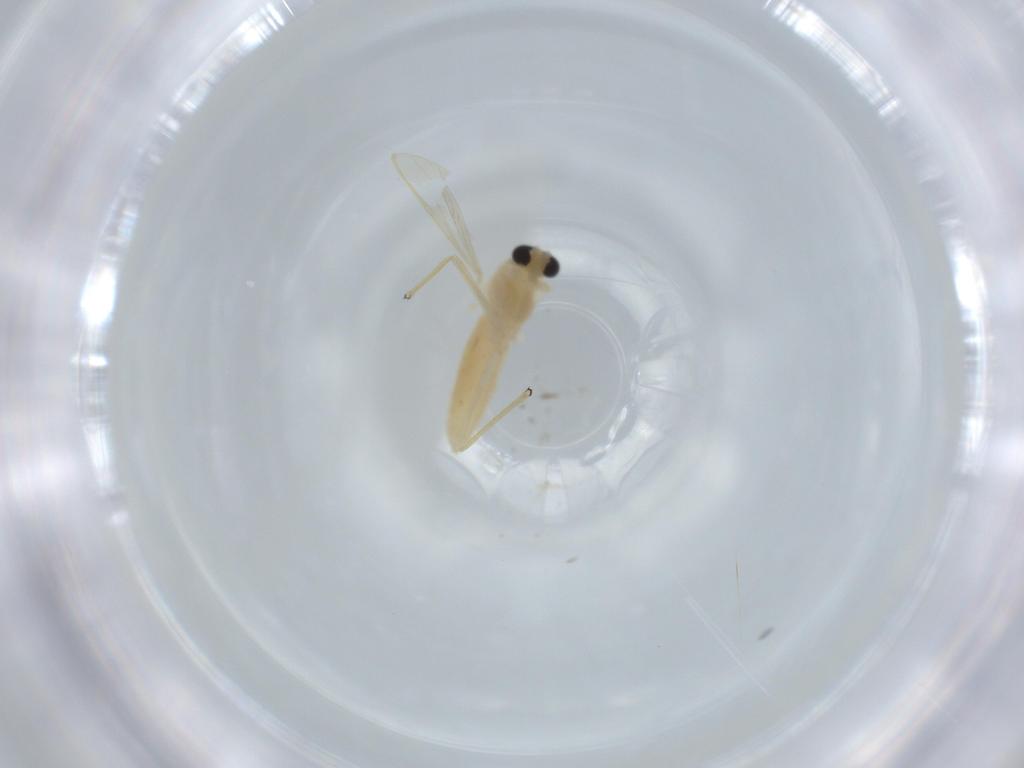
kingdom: Animalia
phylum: Arthropoda
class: Insecta
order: Diptera
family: Chironomidae
